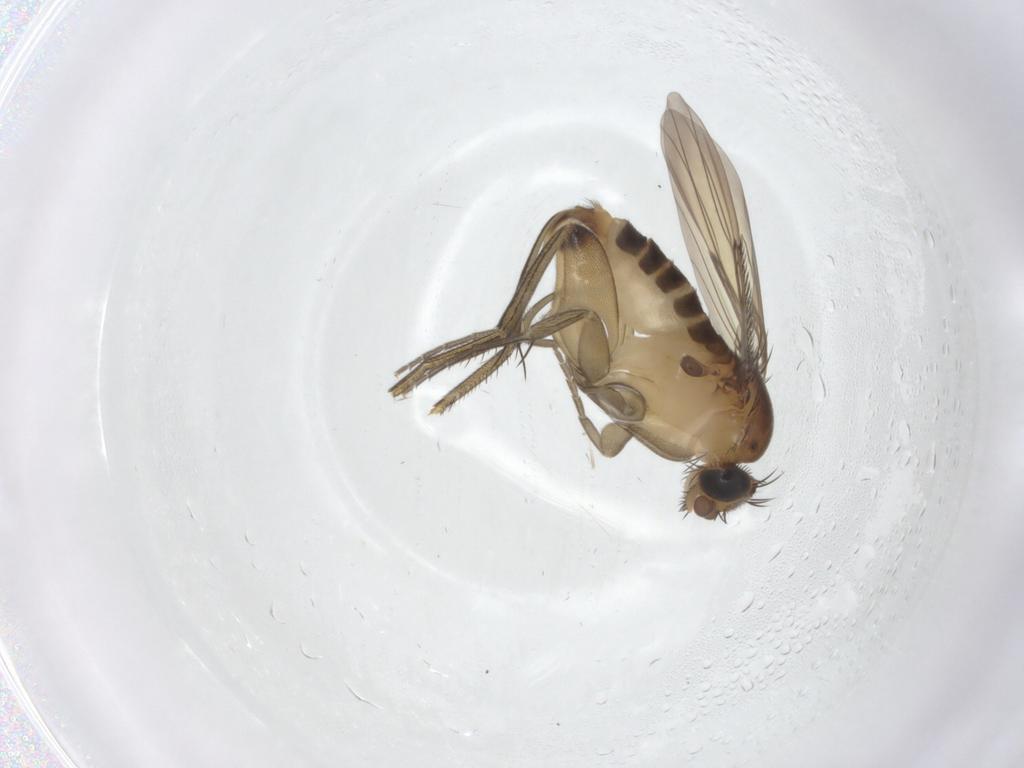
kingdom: Animalia
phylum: Arthropoda
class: Insecta
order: Diptera
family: Phoridae
